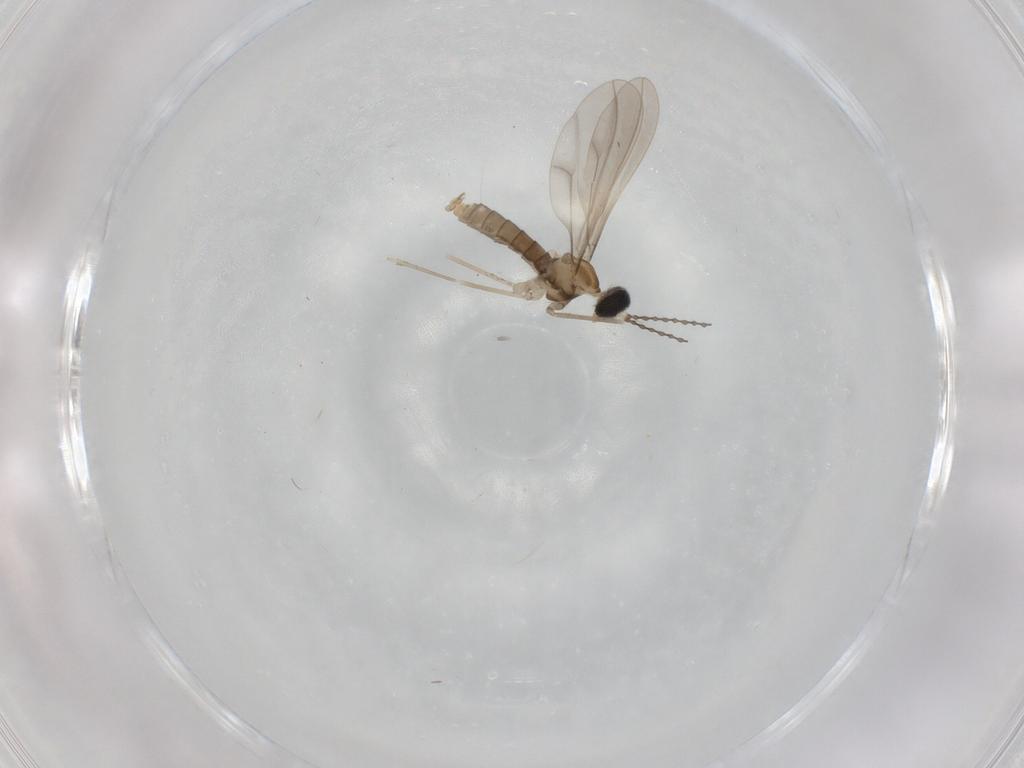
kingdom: Animalia
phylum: Arthropoda
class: Insecta
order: Diptera
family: Cecidomyiidae
